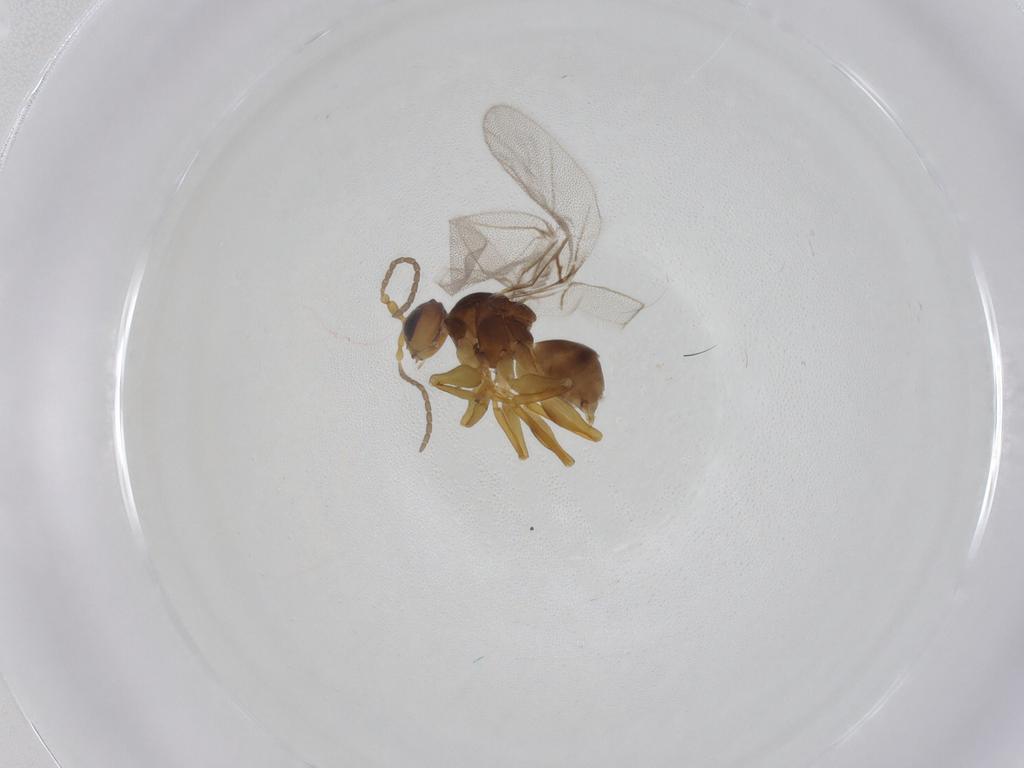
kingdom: Animalia
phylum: Arthropoda
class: Insecta
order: Hymenoptera
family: Cynipidae
